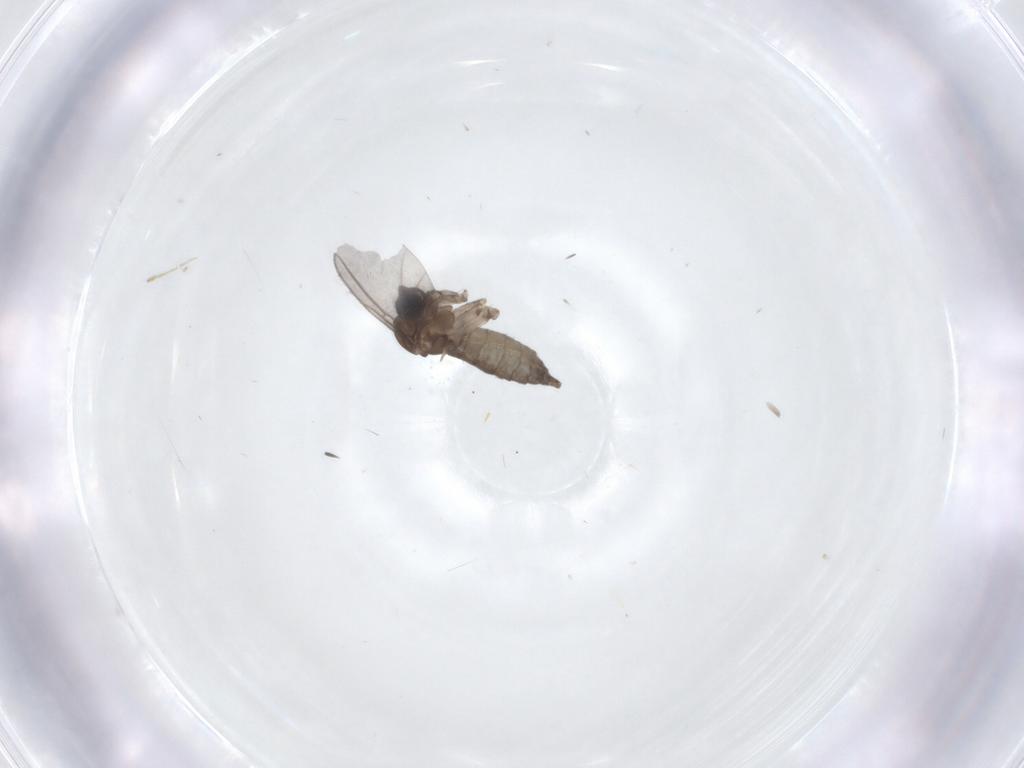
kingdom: Animalia
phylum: Arthropoda
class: Insecta
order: Diptera
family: Sciaridae
